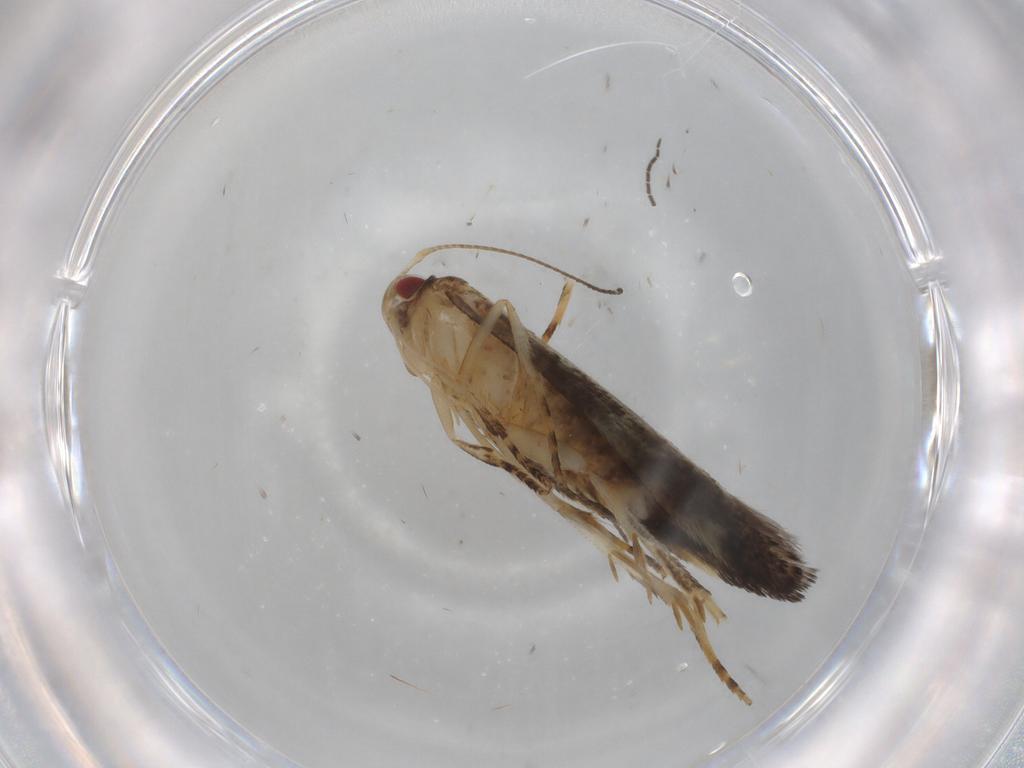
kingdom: Animalia
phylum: Arthropoda
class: Insecta
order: Lepidoptera
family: Cosmopterigidae
